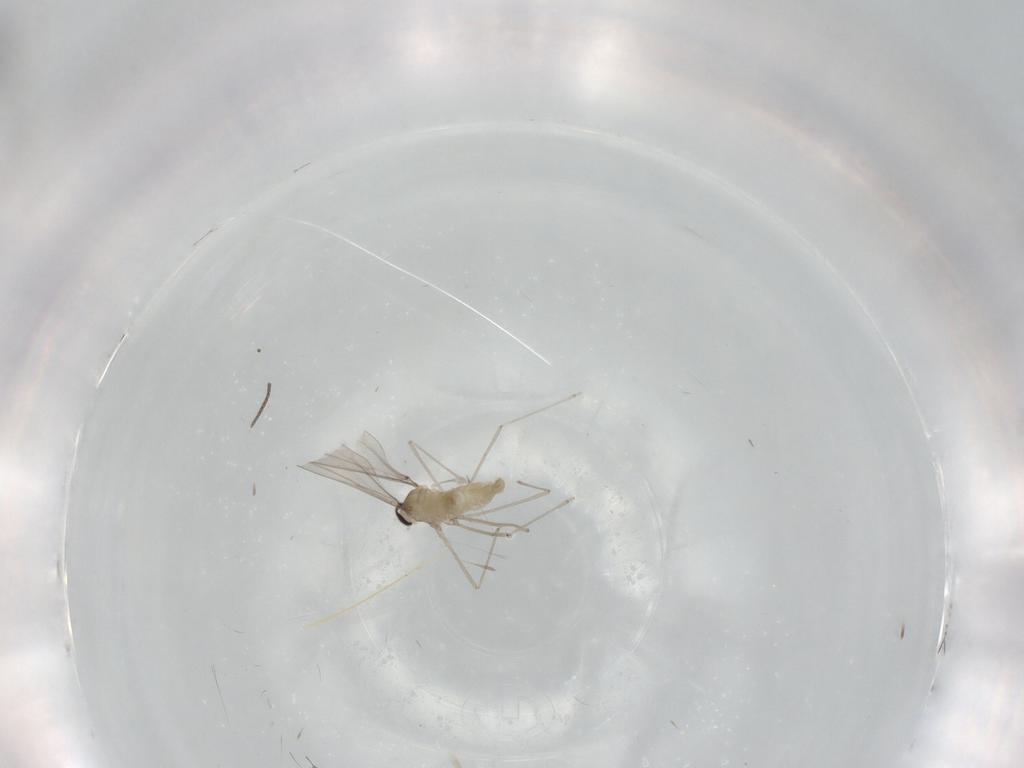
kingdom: Animalia
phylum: Arthropoda
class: Insecta
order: Diptera
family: Cecidomyiidae
